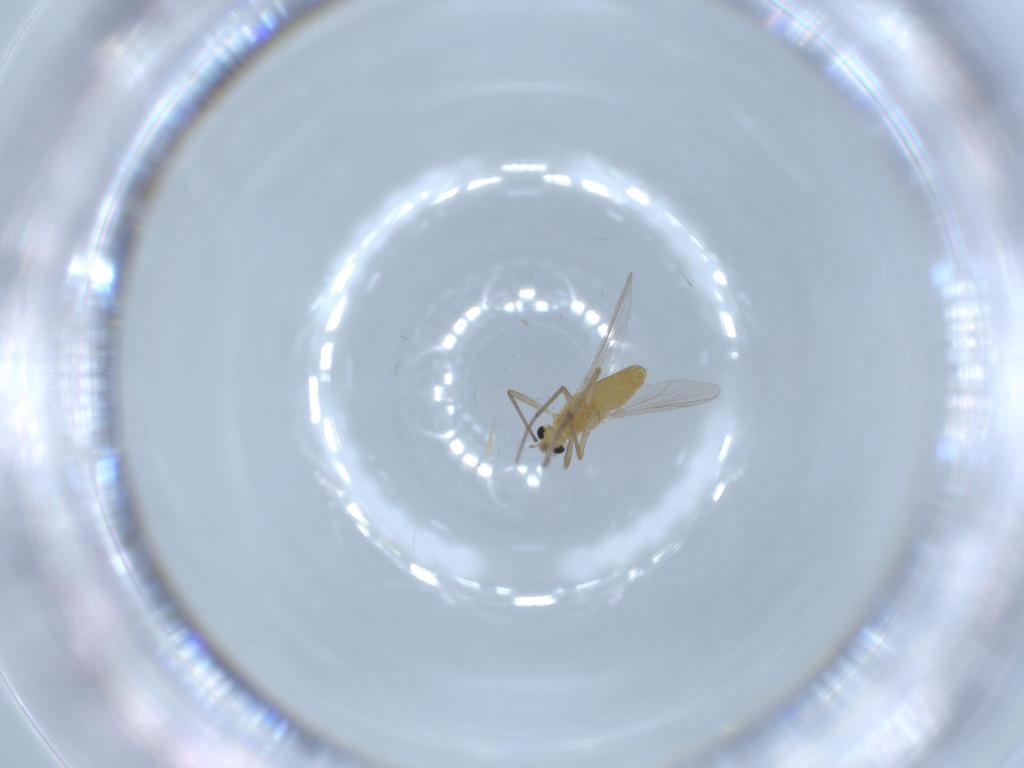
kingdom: Animalia
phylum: Arthropoda
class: Insecta
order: Diptera
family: Chironomidae
